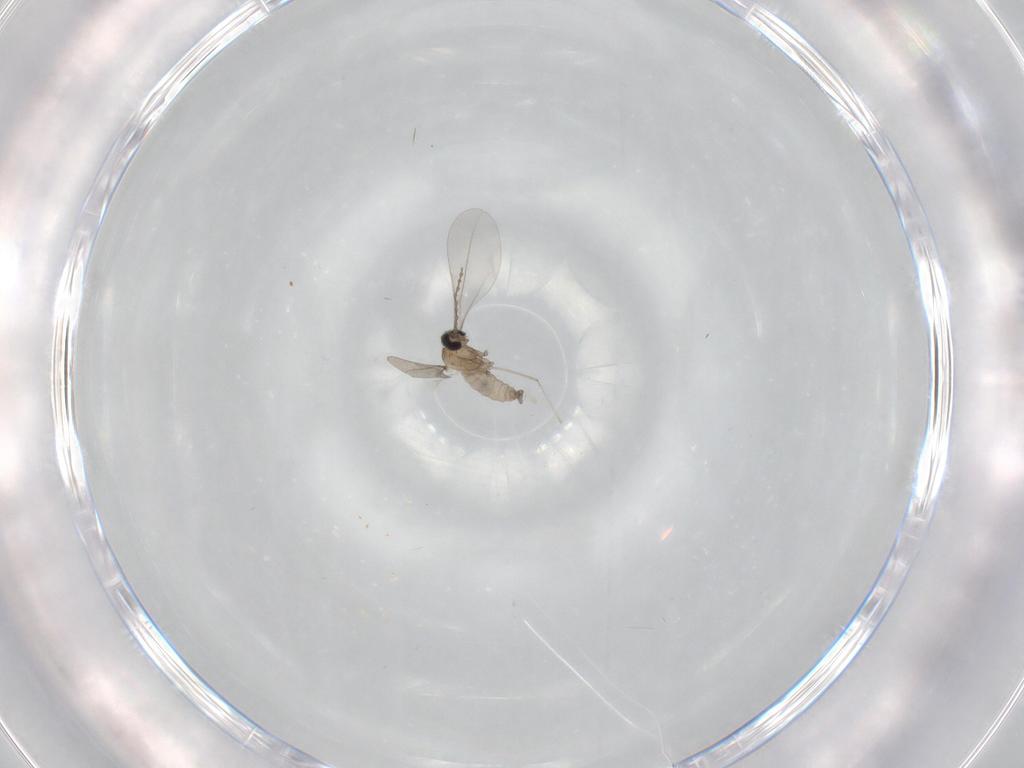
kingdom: Animalia
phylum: Arthropoda
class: Insecta
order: Diptera
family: Cecidomyiidae
